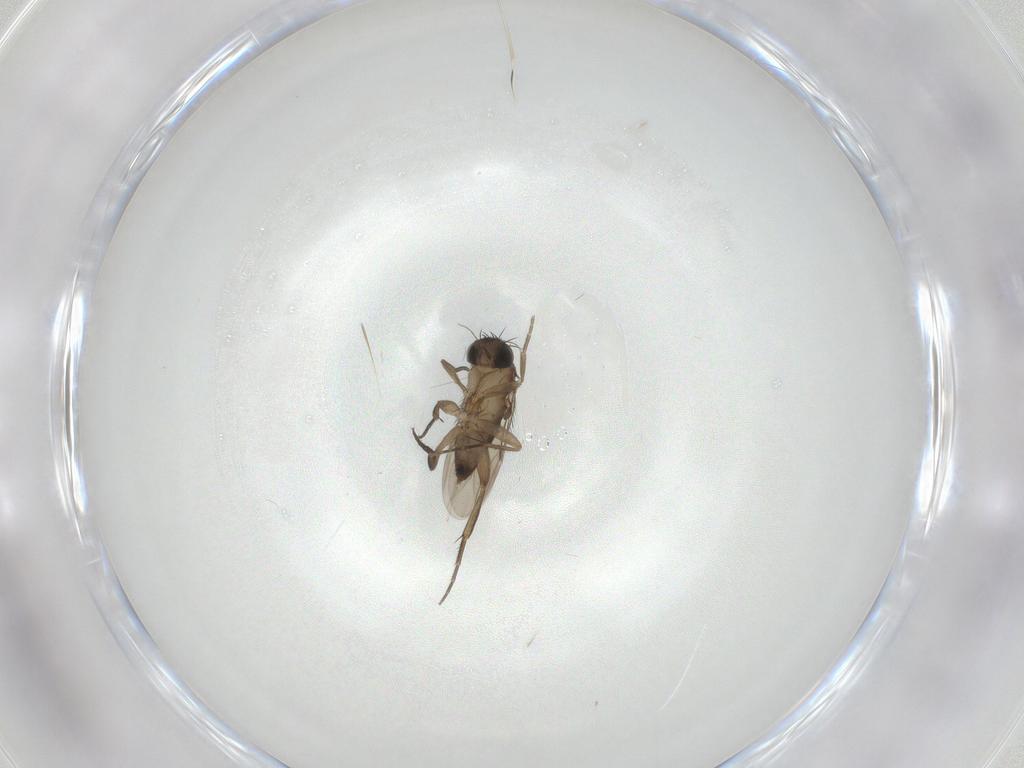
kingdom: Animalia
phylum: Arthropoda
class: Insecta
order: Diptera
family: Phoridae
